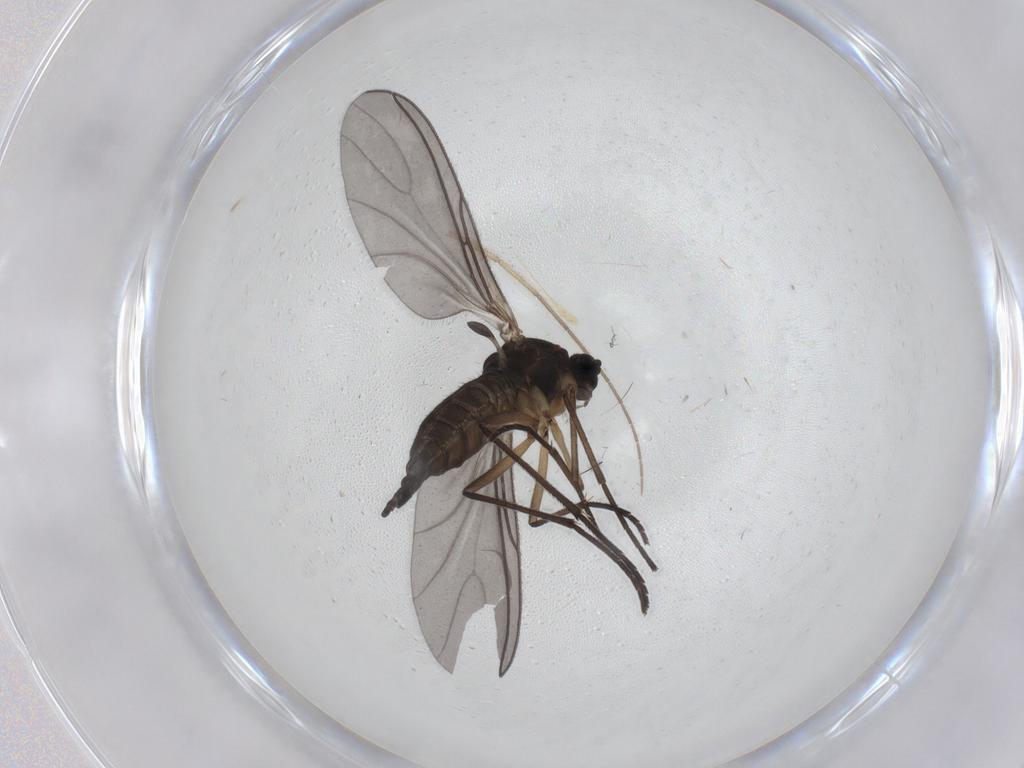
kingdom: Animalia
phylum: Arthropoda
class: Insecta
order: Diptera
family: Sciaridae
